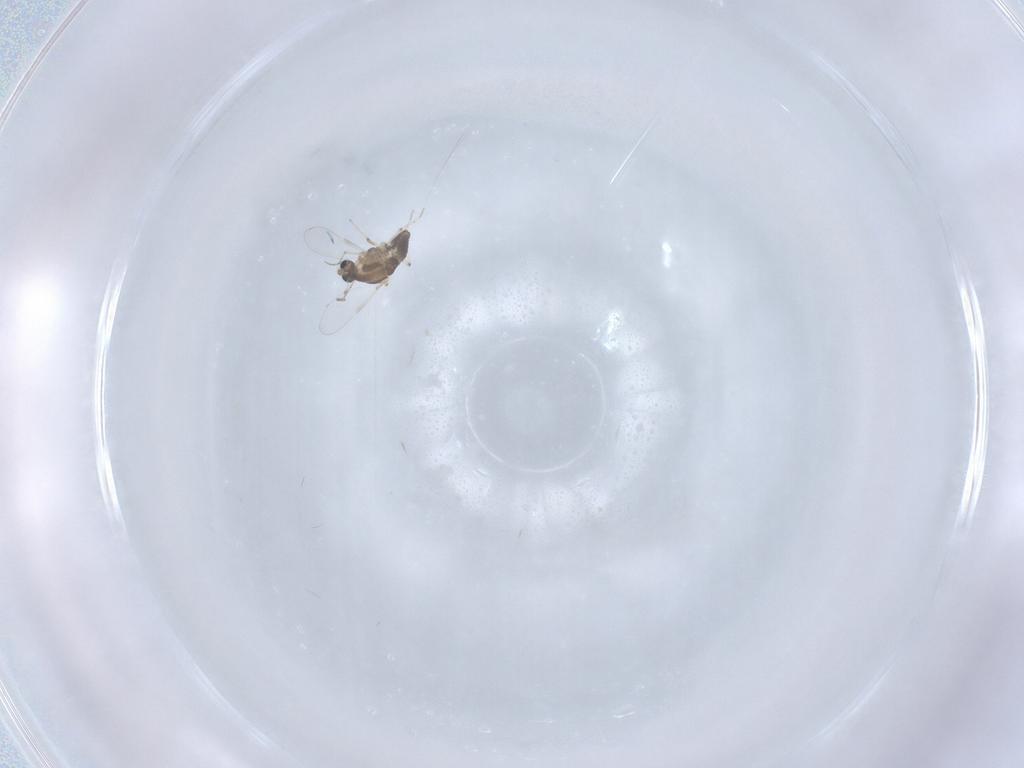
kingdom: Animalia
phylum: Arthropoda
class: Insecta
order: Diptera
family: Chironomidae
